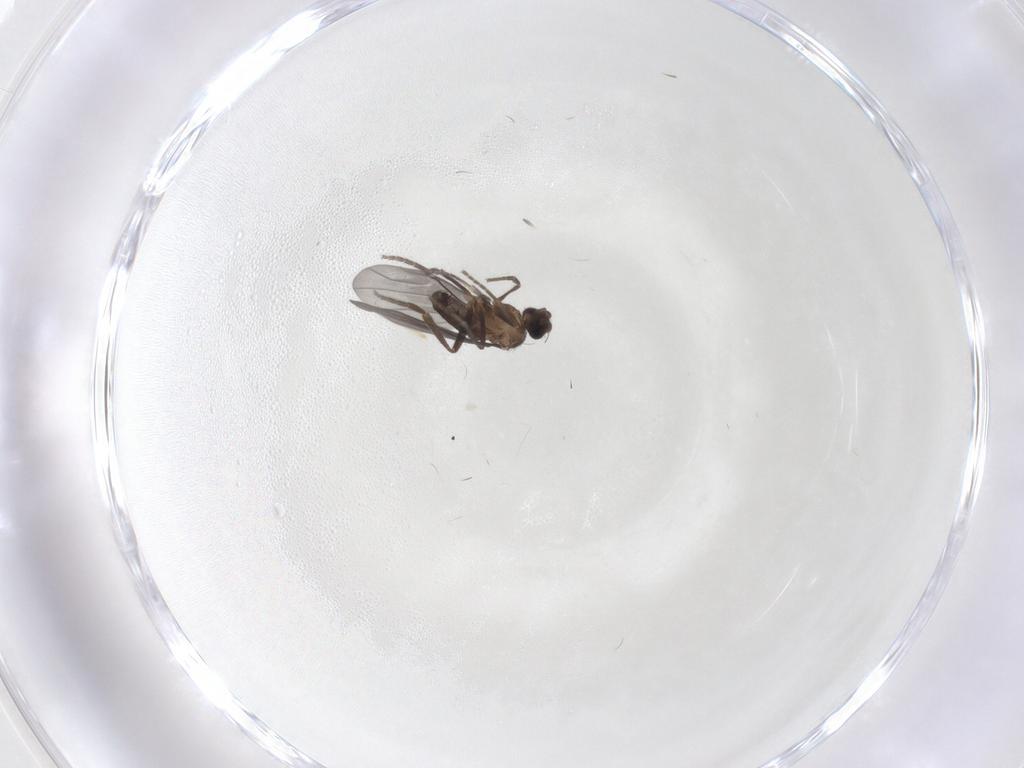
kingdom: Animalia
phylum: Arthropoda
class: Insecta
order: Diptera
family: Phoridae
